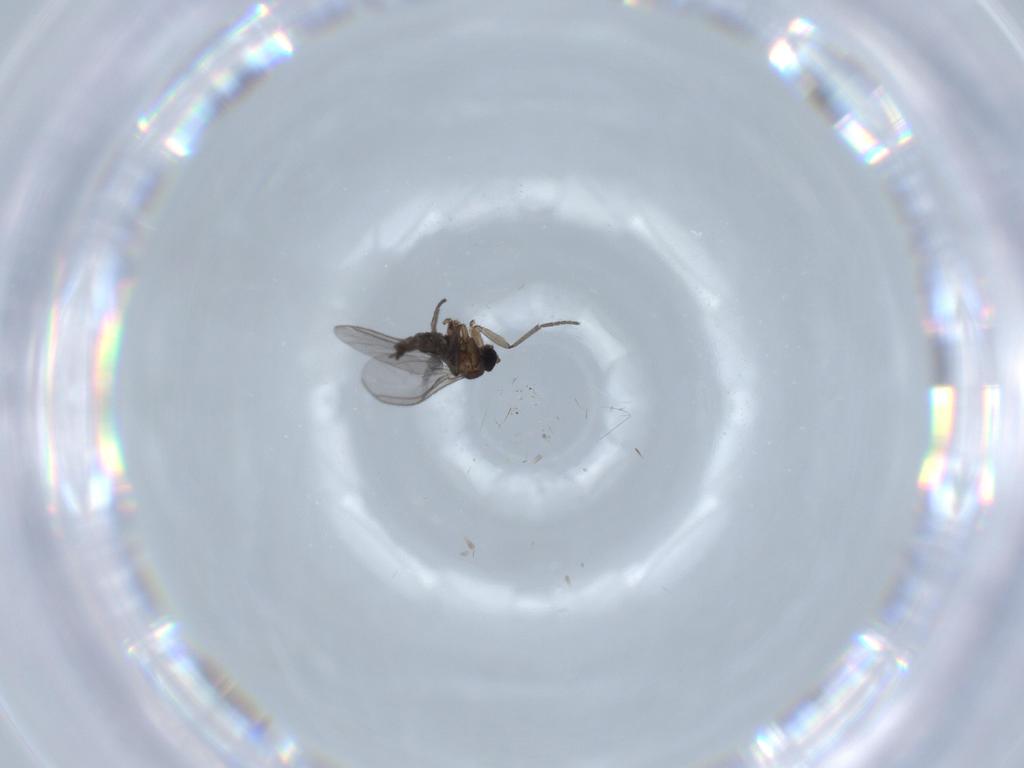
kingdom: Animalia
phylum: Arthropoda
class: Insecta
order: Diptera
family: Phoridae
